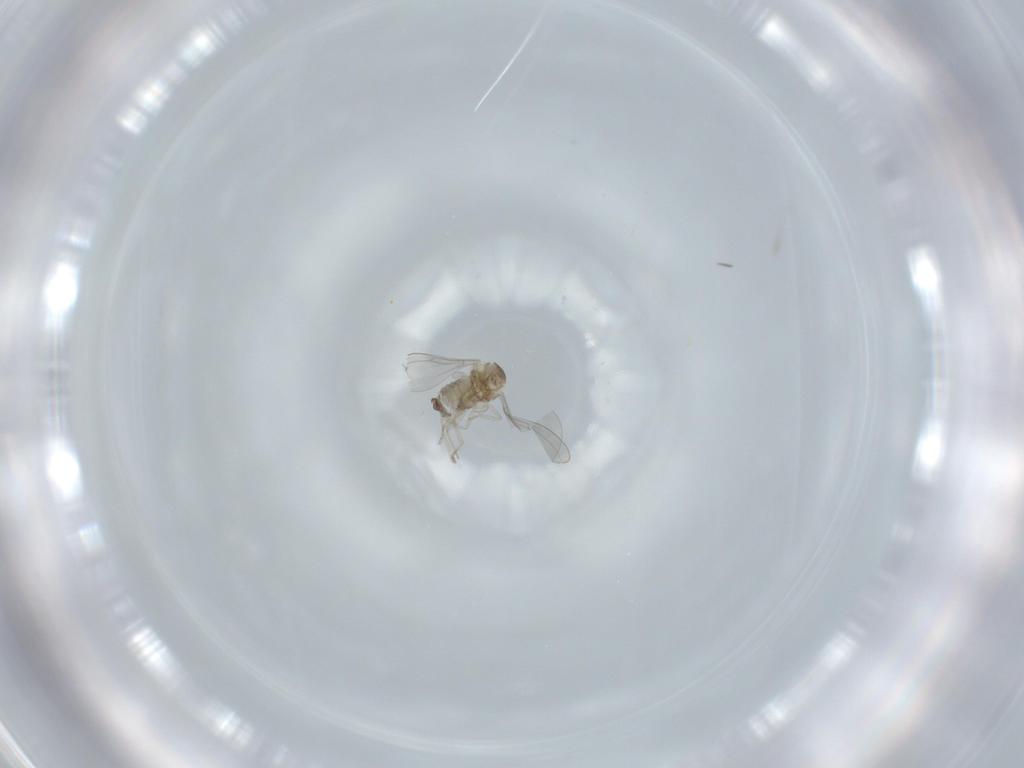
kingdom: Animalia
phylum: Arthropoda
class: Insecta
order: Diptera
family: Cecidomyiidae
